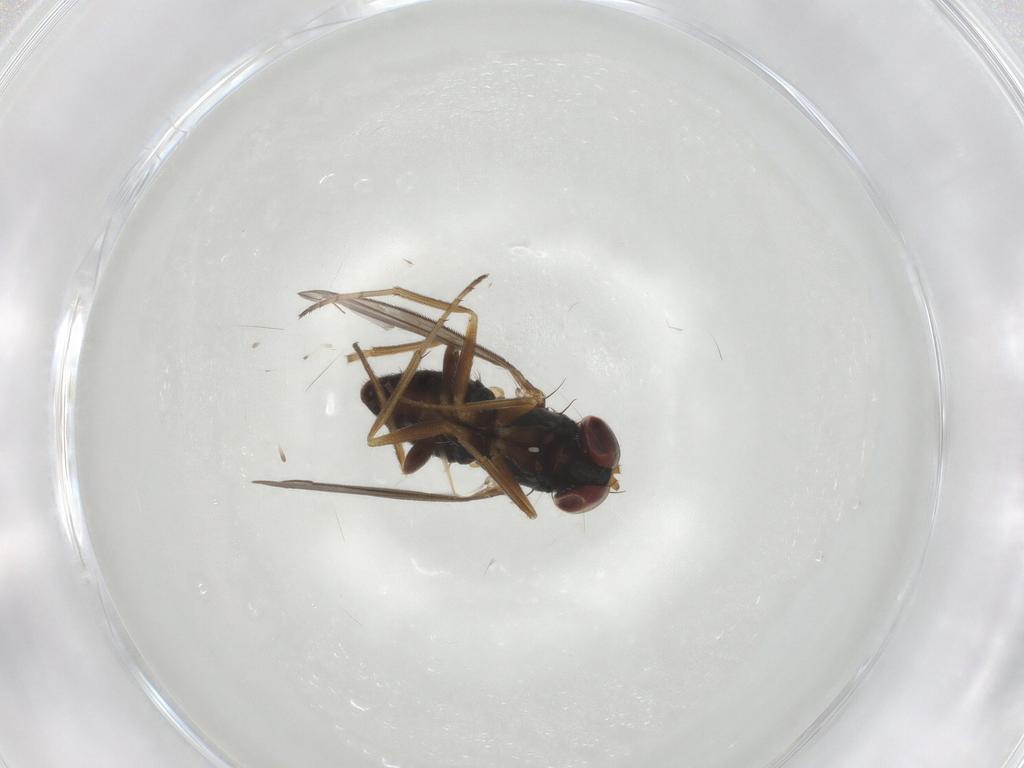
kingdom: Animalia
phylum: Arthropoda
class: Insecta
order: Diptera
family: Dolichopodidae
